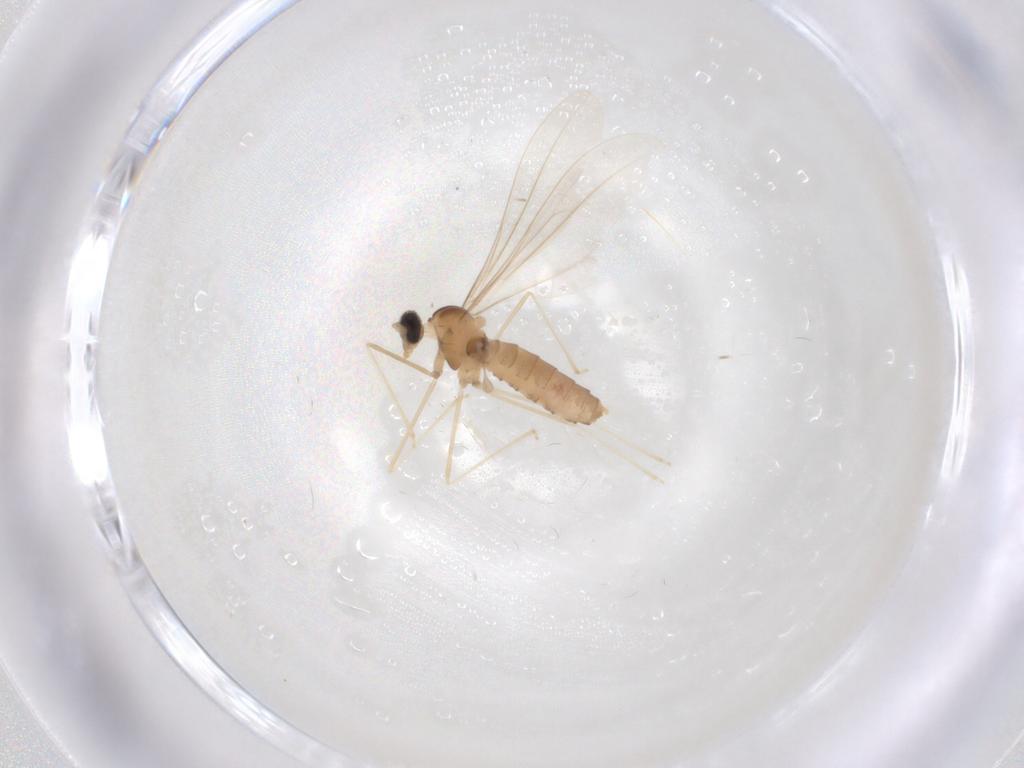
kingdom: Animalia
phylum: Arthropoda
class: Insecta
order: Diptera
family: Cecidomyiidae
